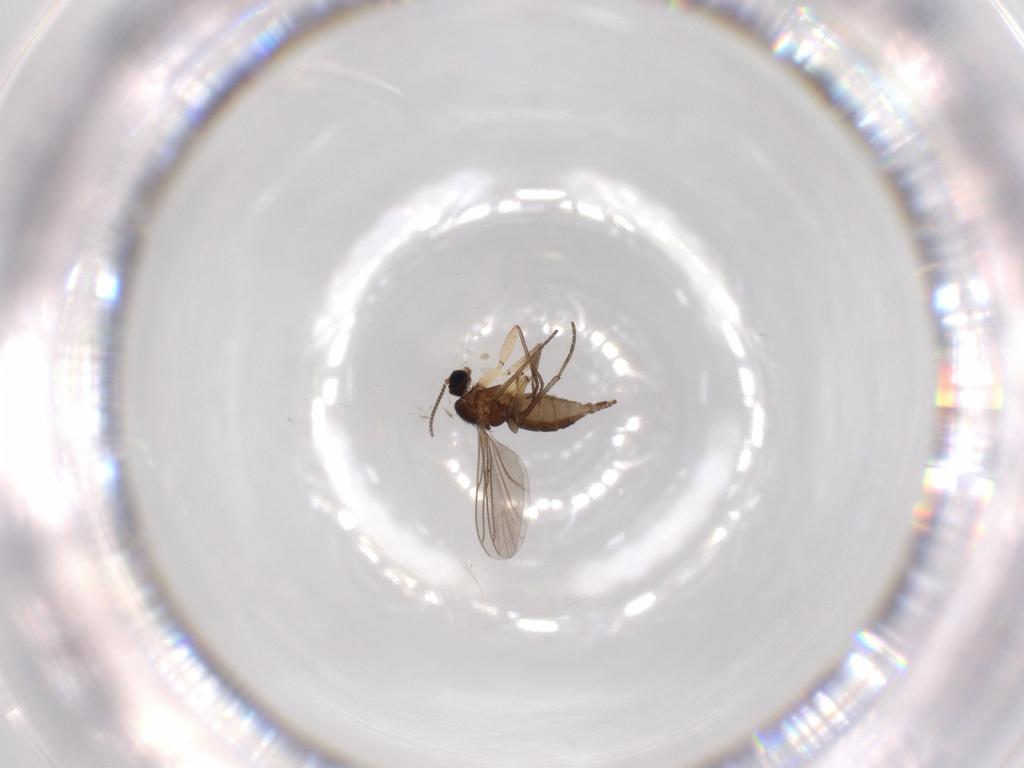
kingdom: Animalia
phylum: Arthropoda
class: Insecta
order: Diptera
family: Sciaridae
